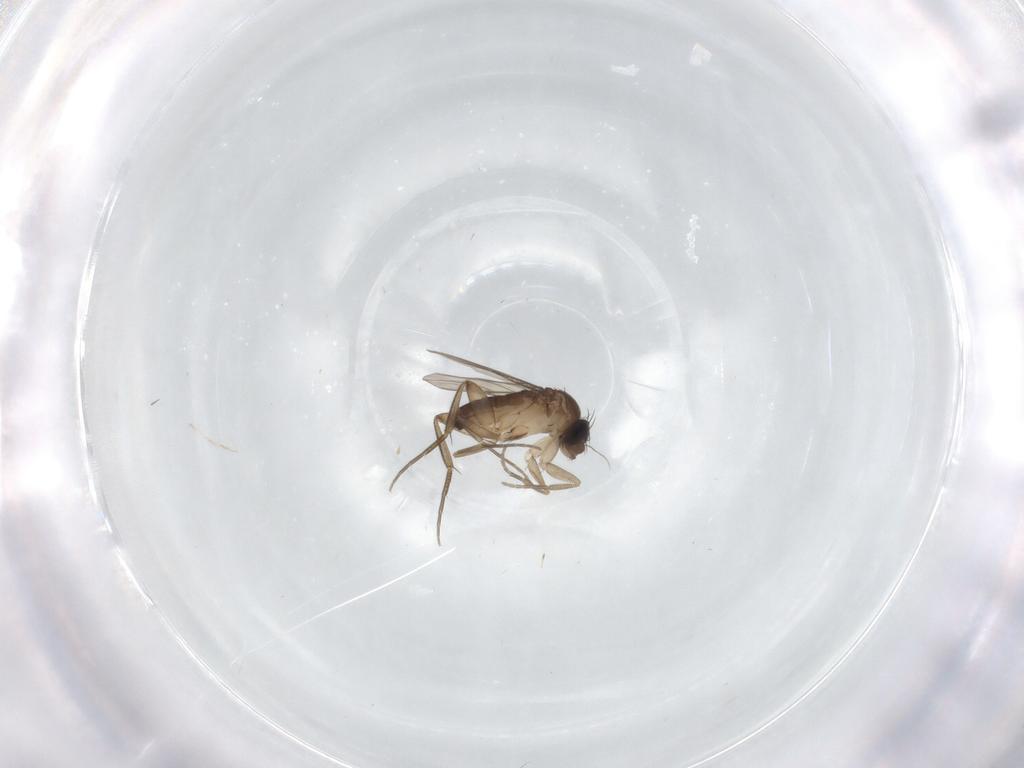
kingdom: Animalia
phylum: Arthropoda
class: Insecta
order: Diptera
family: Phoridae
